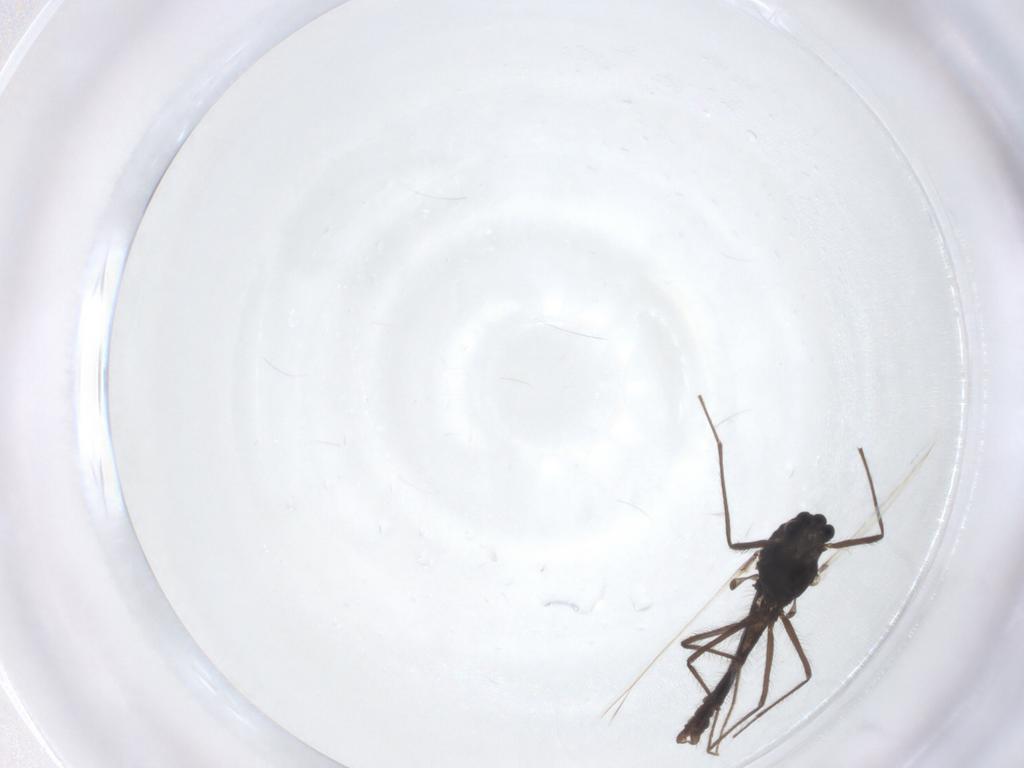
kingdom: Animalia
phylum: Arthropoda
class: Insecta
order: Diptera
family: Chironomidae
